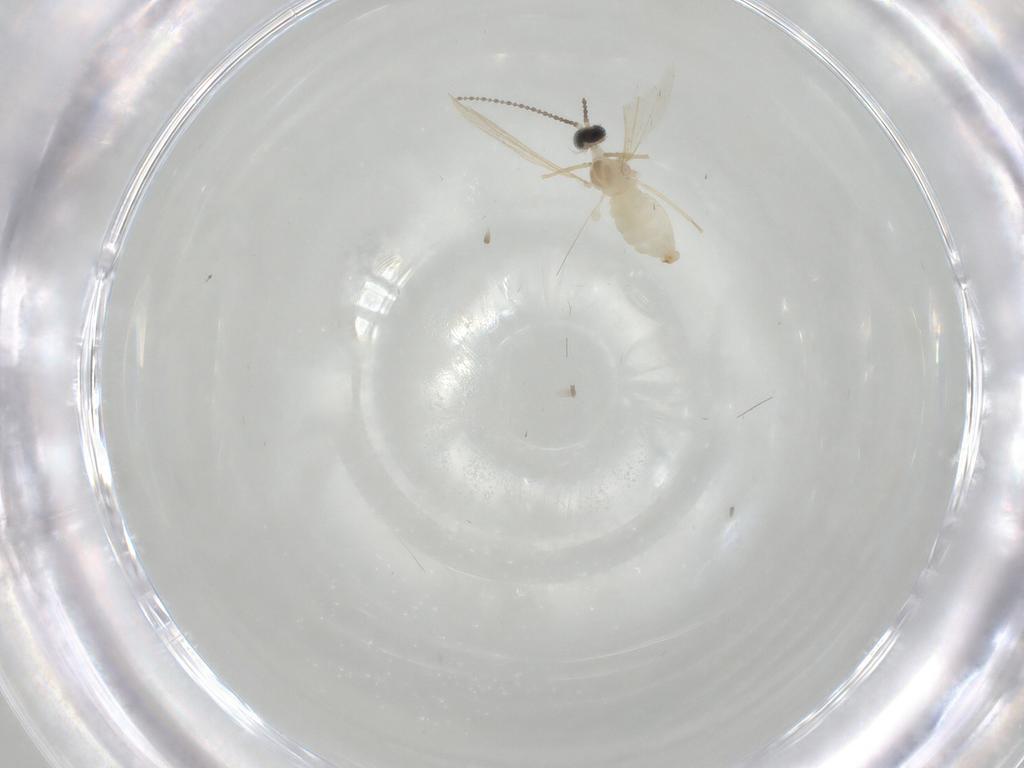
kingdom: Animalia
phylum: Arthropoda
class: Insecta
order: Diptera
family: Cecidomyiidae
